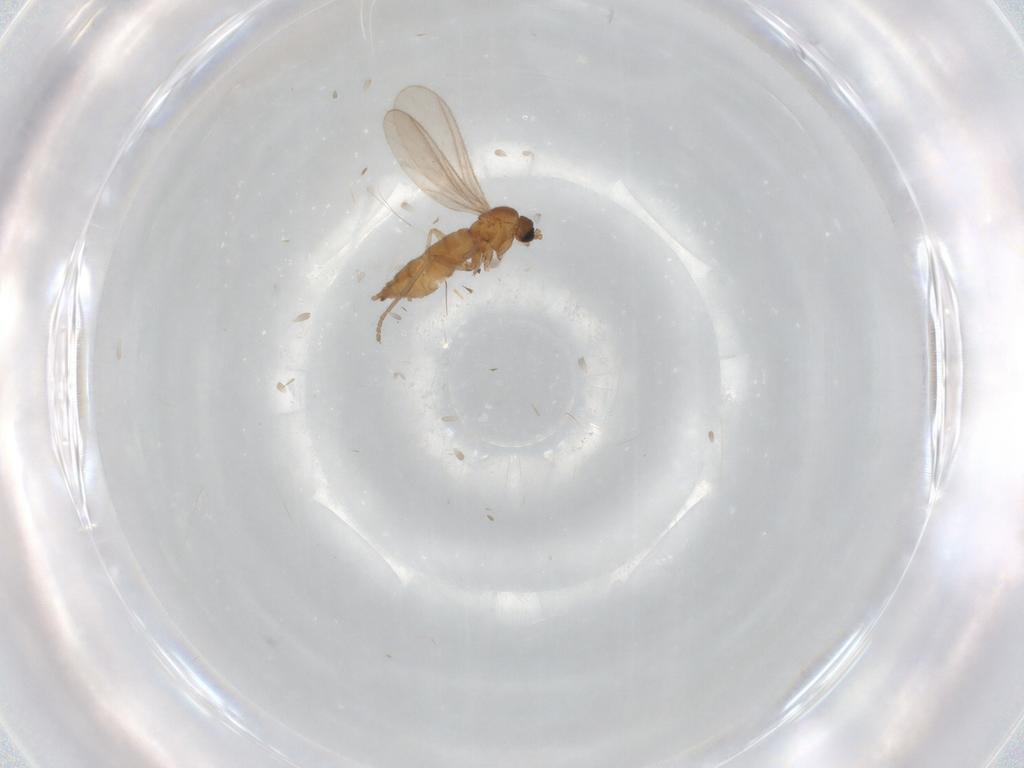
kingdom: Animalia
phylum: Arthropoda
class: Insecta
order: Diptera
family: Sciaridae
